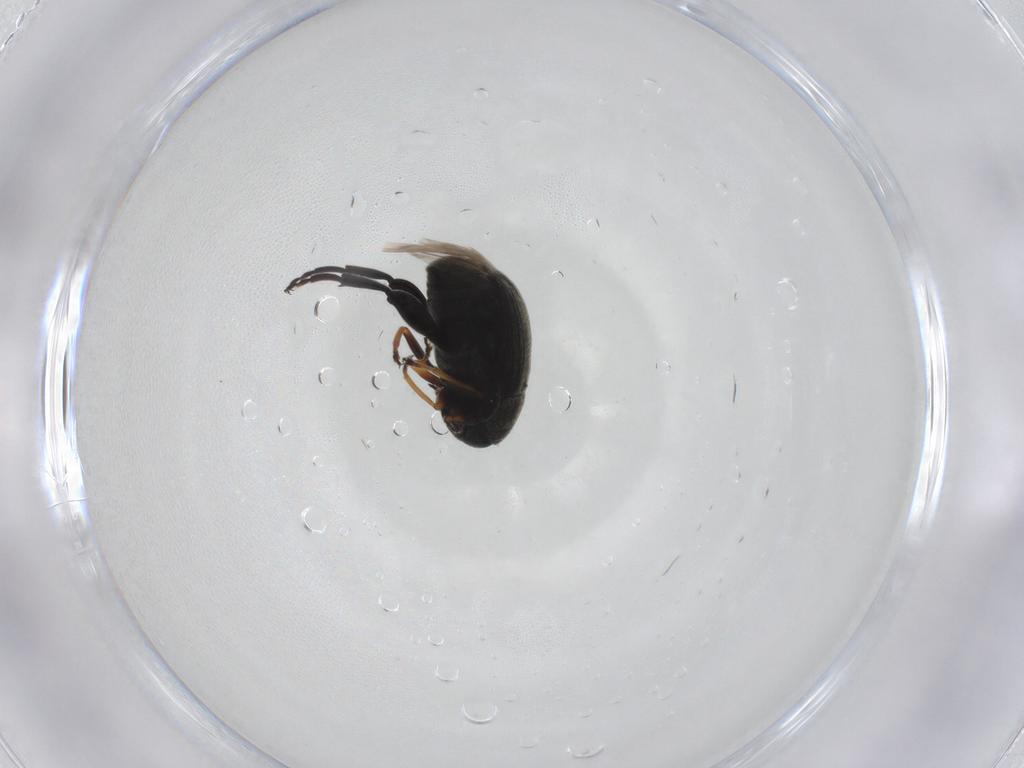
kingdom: Animalia
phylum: Arthropoda
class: Insecta
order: Coleoptera
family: Chrysomelidae
